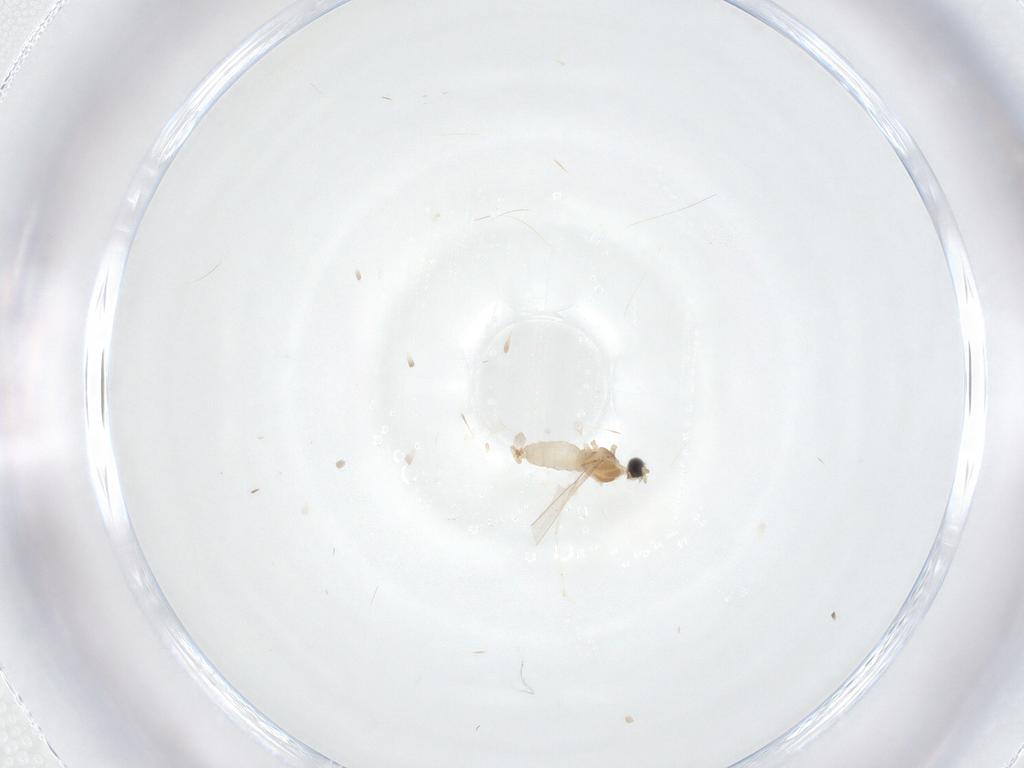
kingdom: Animalia
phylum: Arthropoda
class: Insecta
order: Diptera
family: Cecidomyiidae
